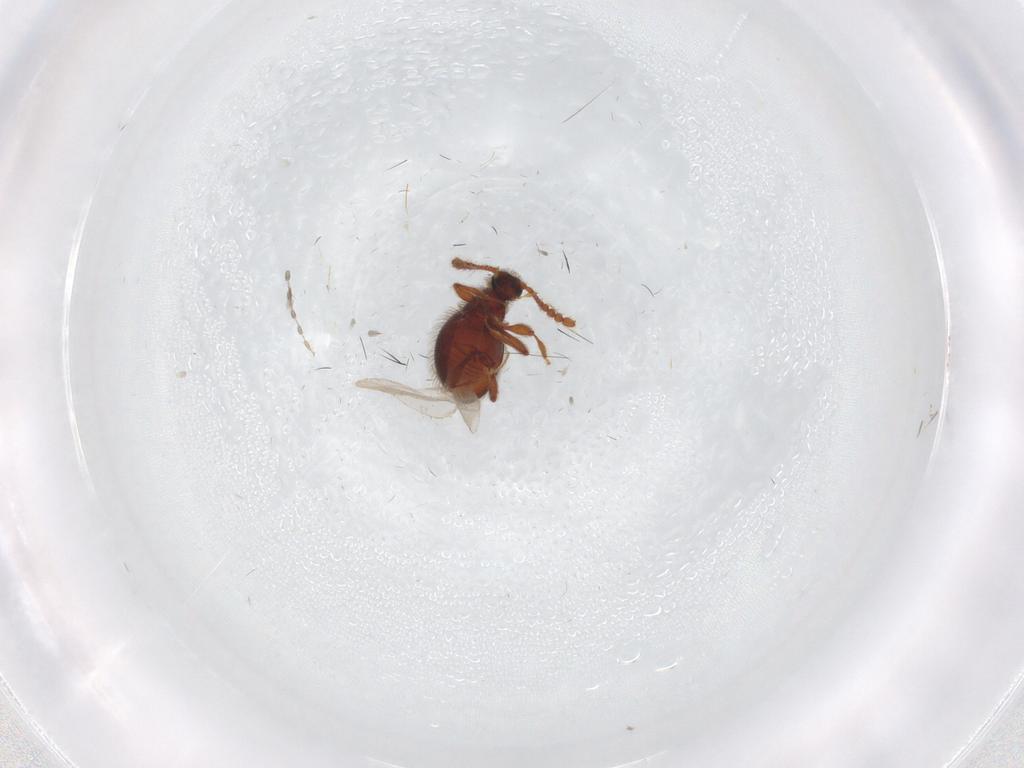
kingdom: Animalia
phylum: Arthropoda
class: Insecta
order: Coleoptera
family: Staphylinidae
